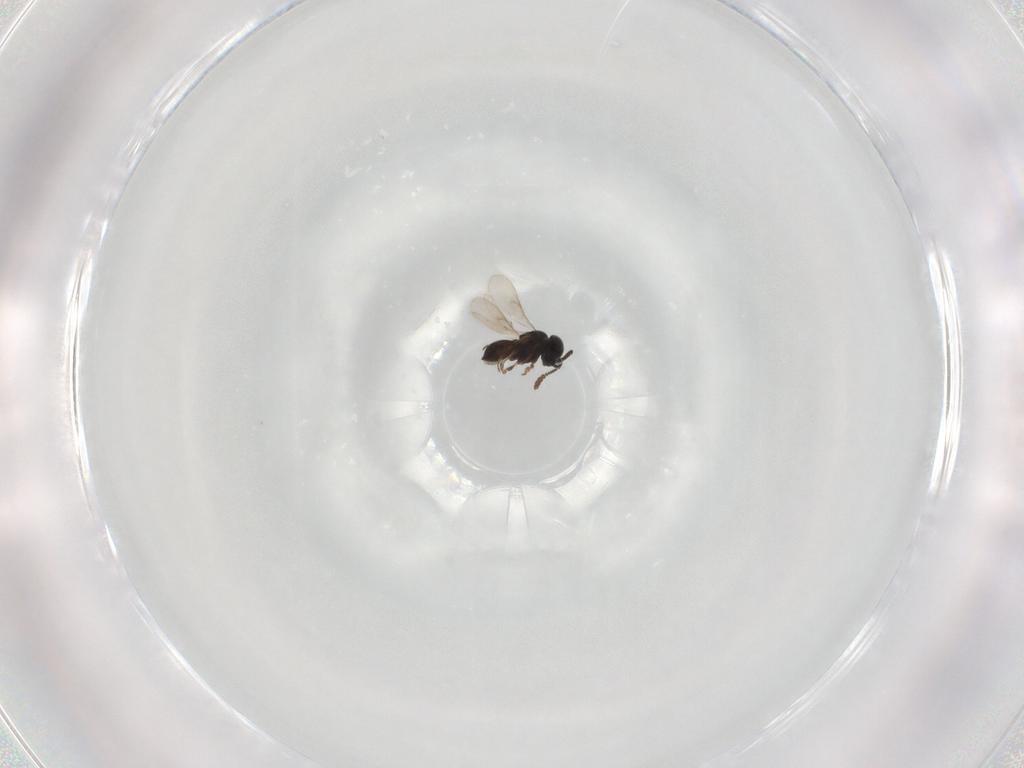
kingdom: Animalia
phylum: Arthropoda
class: Insecta
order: Hymenoptera
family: Scelionidae
